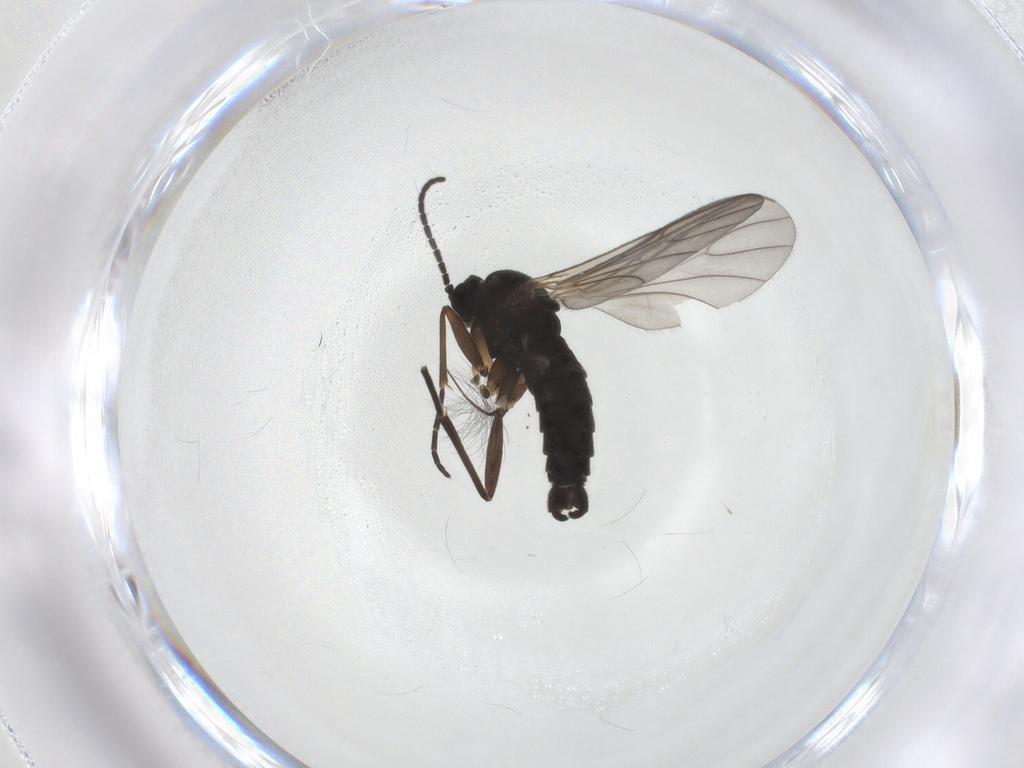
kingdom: Animalia
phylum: Arthropoda
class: Insecta
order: Diptera
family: Sciaridae
